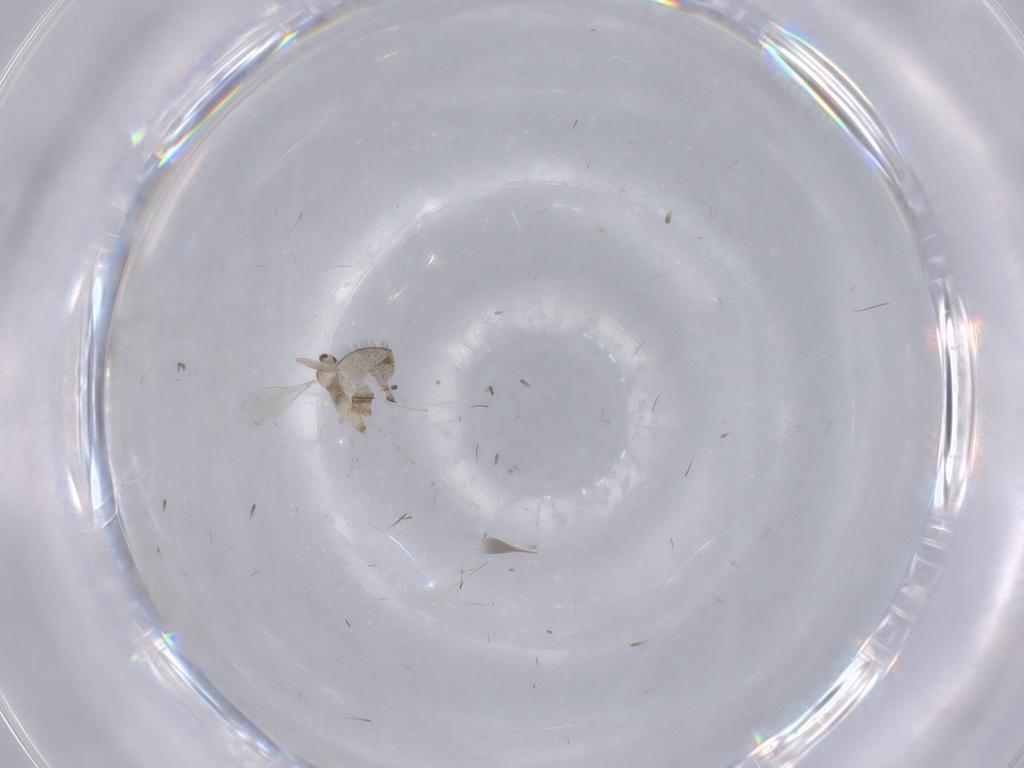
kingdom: Animalia
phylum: Arthropoda
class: Insecta
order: Diptera
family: Cecidomyiidae
